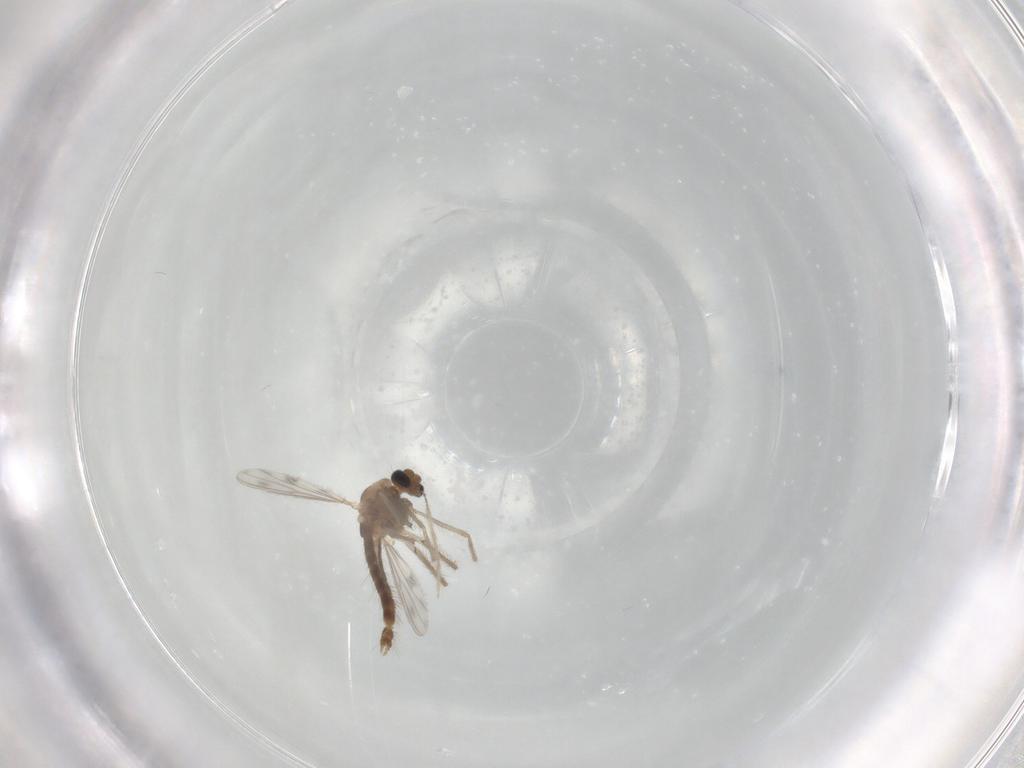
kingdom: Animalia
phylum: Arthropoda
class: Insecta
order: Diptera
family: Chironomidae
